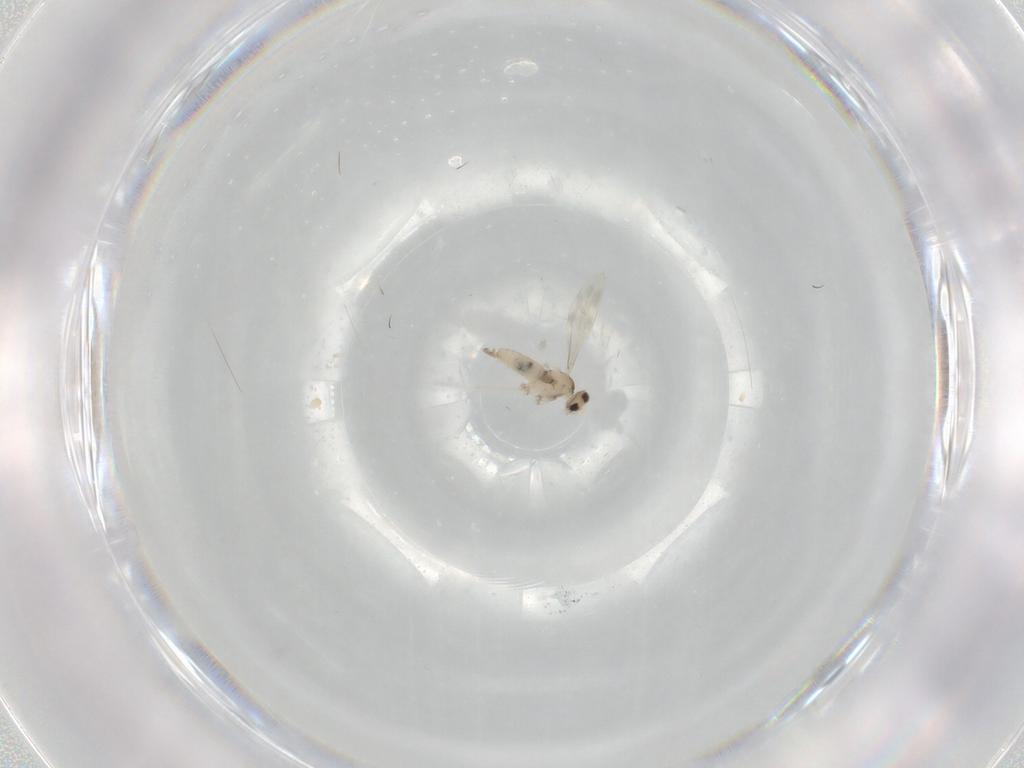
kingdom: Animalia
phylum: Arthropoda
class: Insecta
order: Diptera
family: Cecidomyiidae
